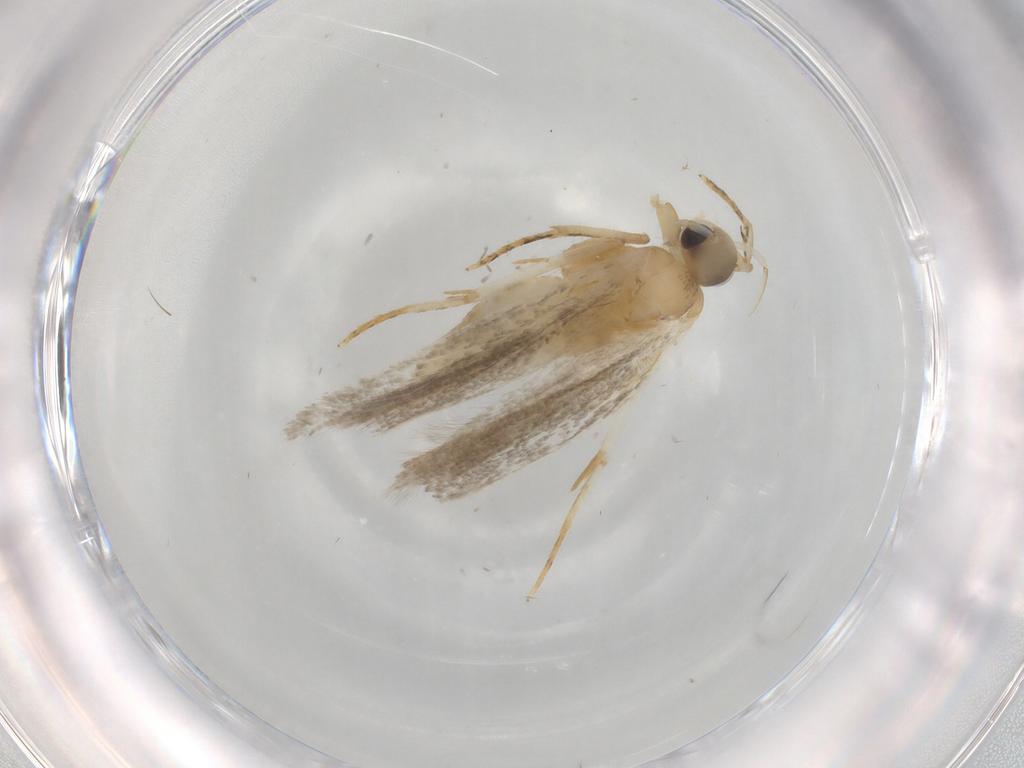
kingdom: Animalia
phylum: Arthropoda
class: Insecta
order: Lepidoptera
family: Autostichidae
